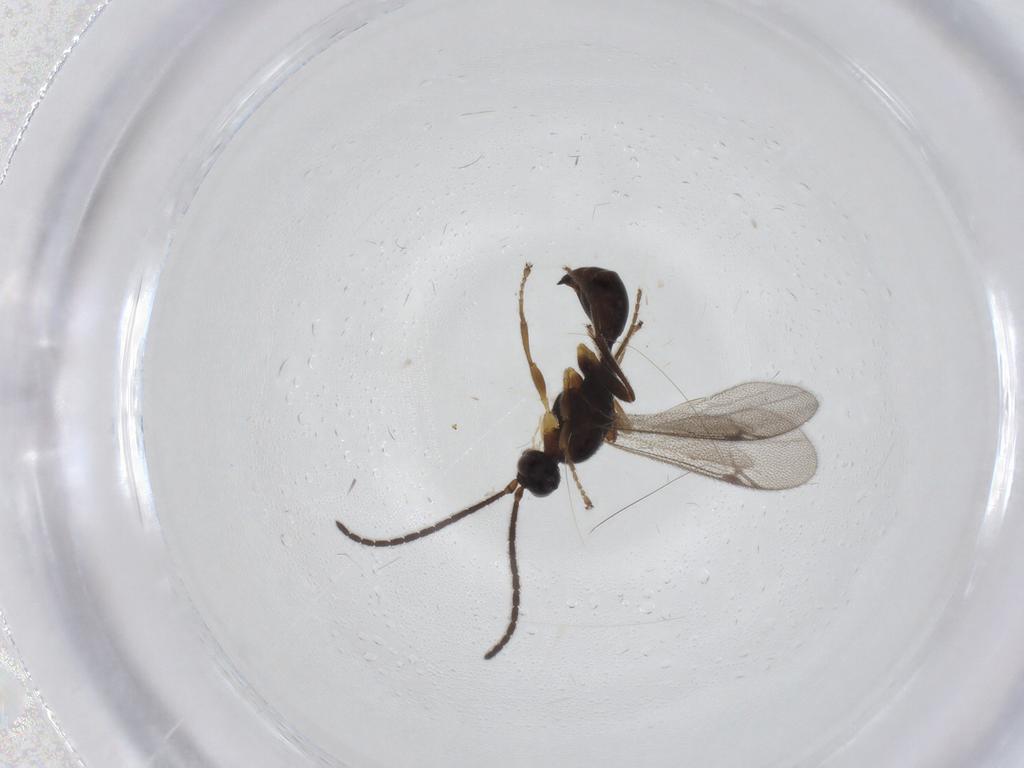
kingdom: Animalia
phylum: Arthropoda
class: Insecta
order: Hymenoptera
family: Proctotrupidae
